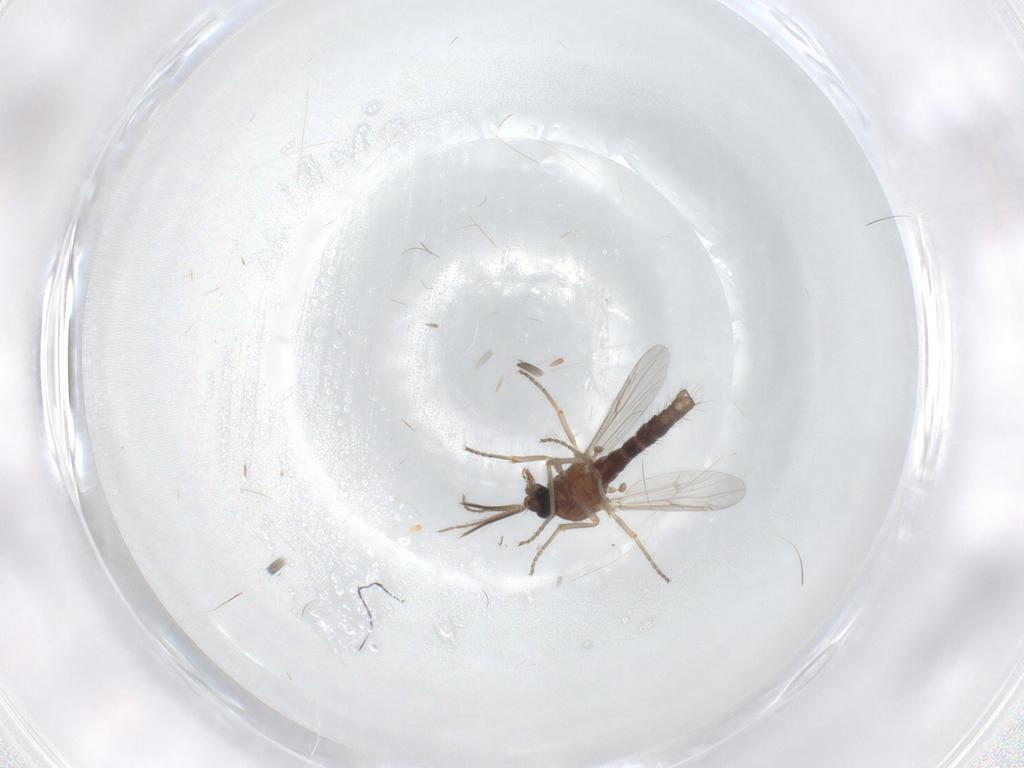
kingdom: Animalia
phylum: Arthropoda
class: Insecta
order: Diptera
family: Ceratopogonidae
